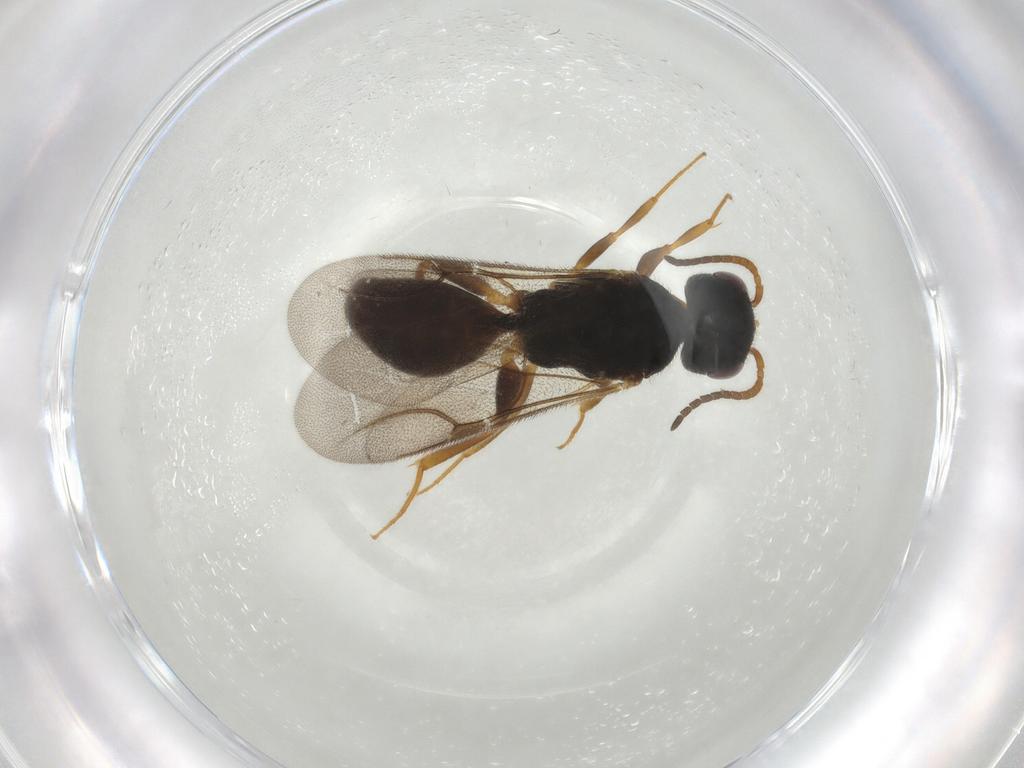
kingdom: Animalia
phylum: Arthropoda
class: Insecta
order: Hymenoptera
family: Bethylidae
